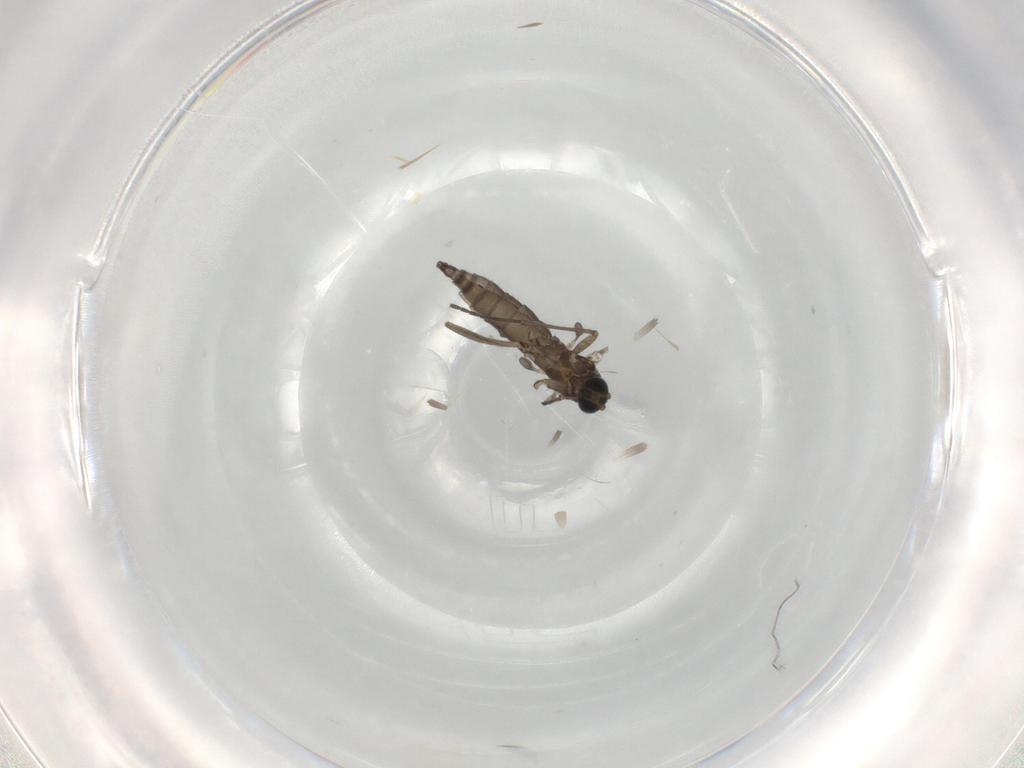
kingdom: Animalia
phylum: Arthropoda
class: Insecta
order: Diptera
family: Sciaridae
